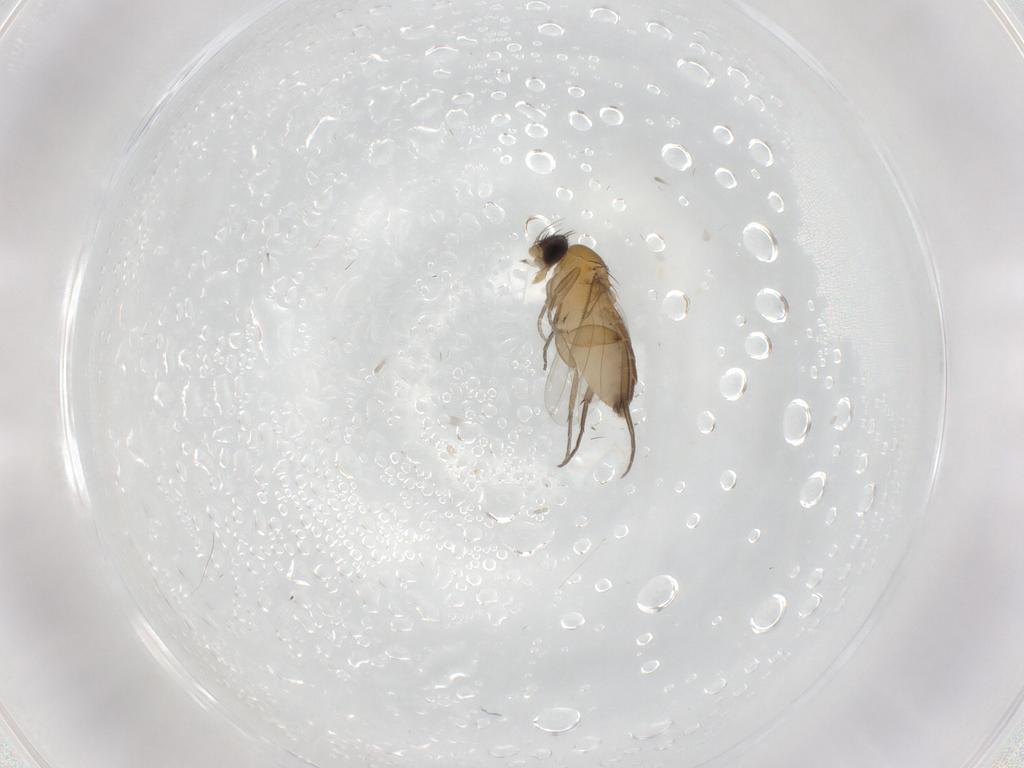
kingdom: Animalia
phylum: Arthropoda
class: Insecta
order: Diptera
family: Phoridae
